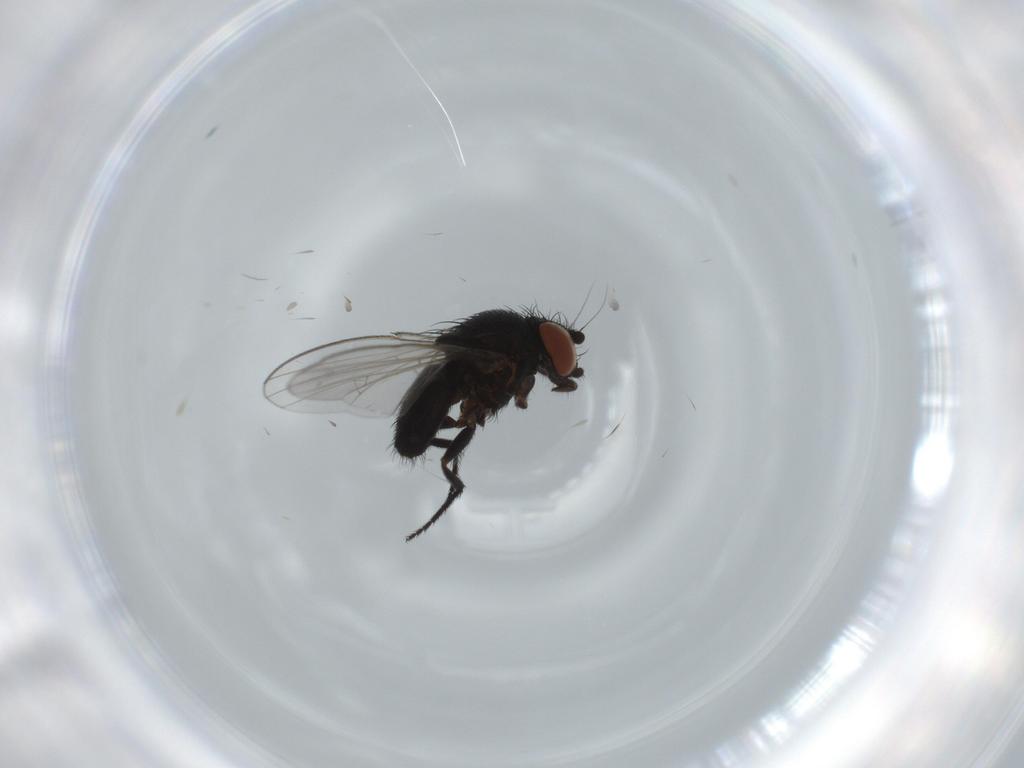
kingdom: Animalia
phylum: Arthropoda
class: Insecta
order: Diptera
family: Milichiidae
